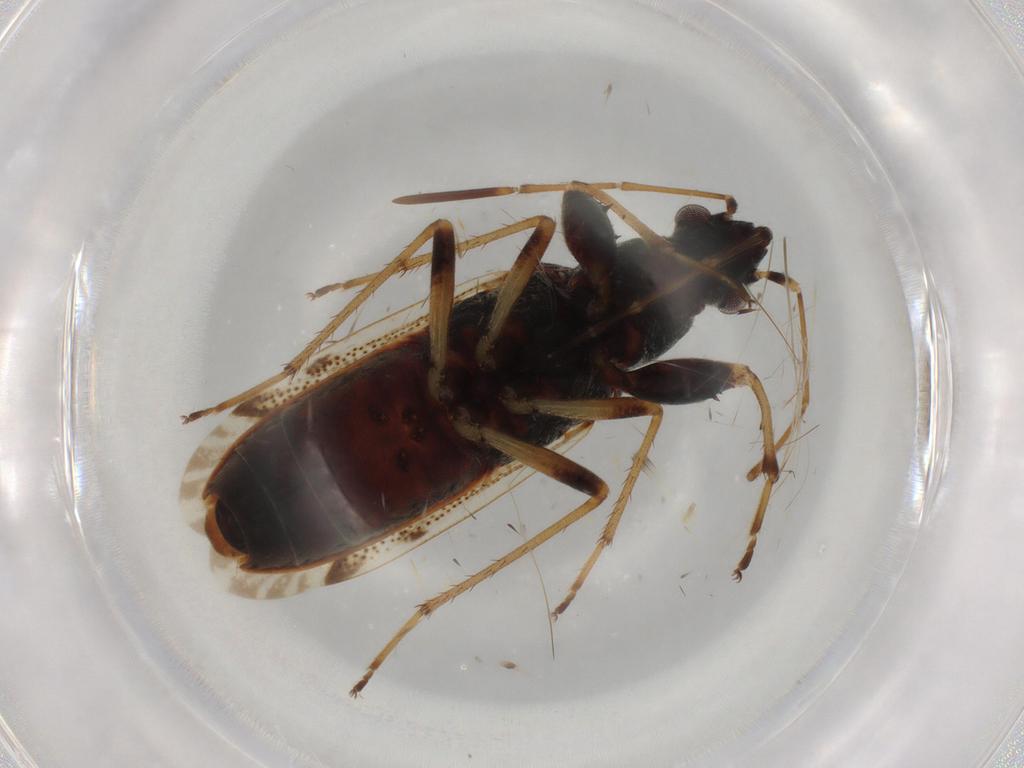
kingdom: Animalia
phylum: Arthropoda
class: Insecta
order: Hemiptera
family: Rhyparochromidae
